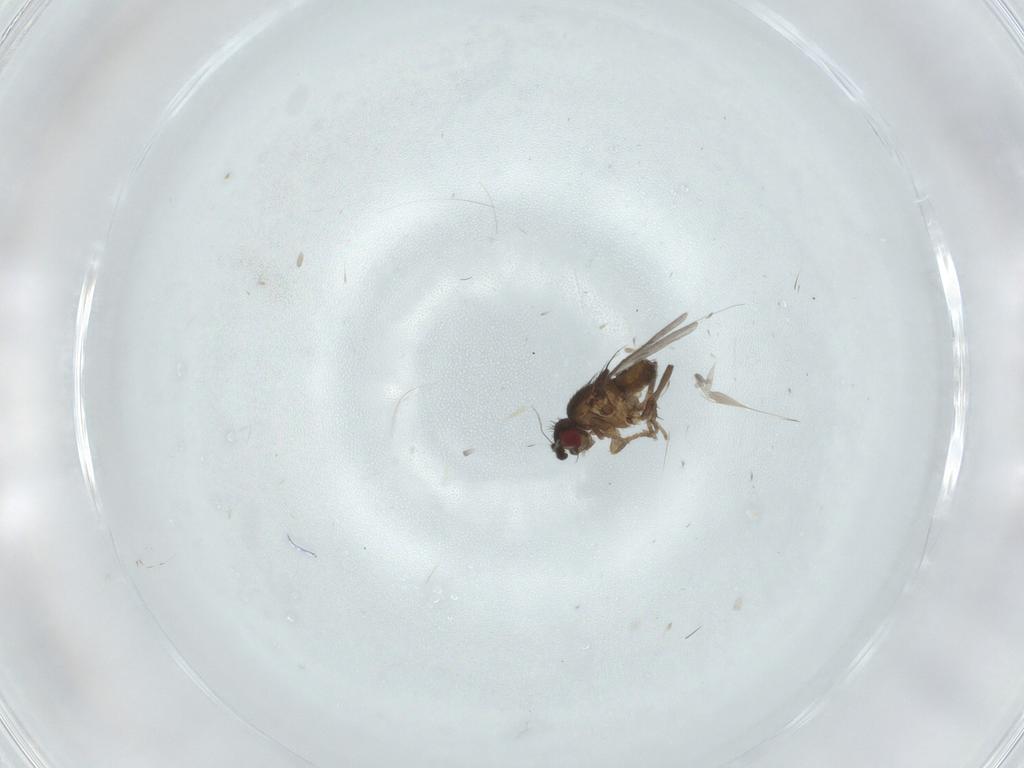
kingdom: Animalia
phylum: Arthropoda
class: Insecta
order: Diptera
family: Sphaeroceridae
